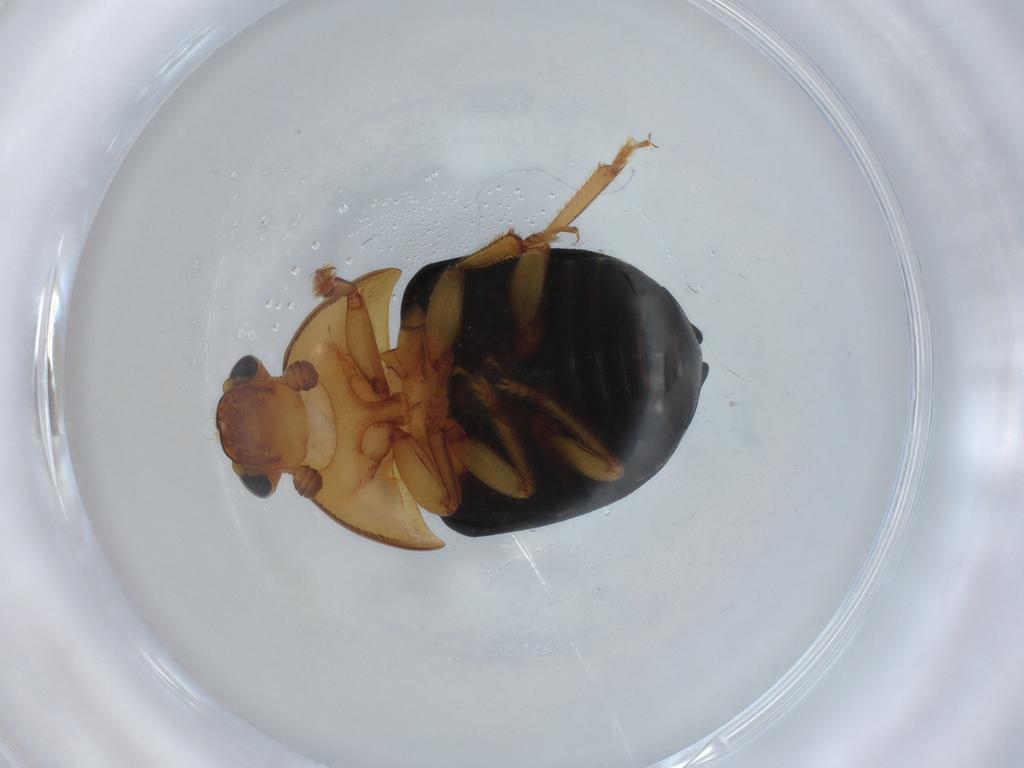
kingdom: Animalia
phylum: Arthropoda
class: Insecta
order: Coleoptera
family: Nitidulidae
